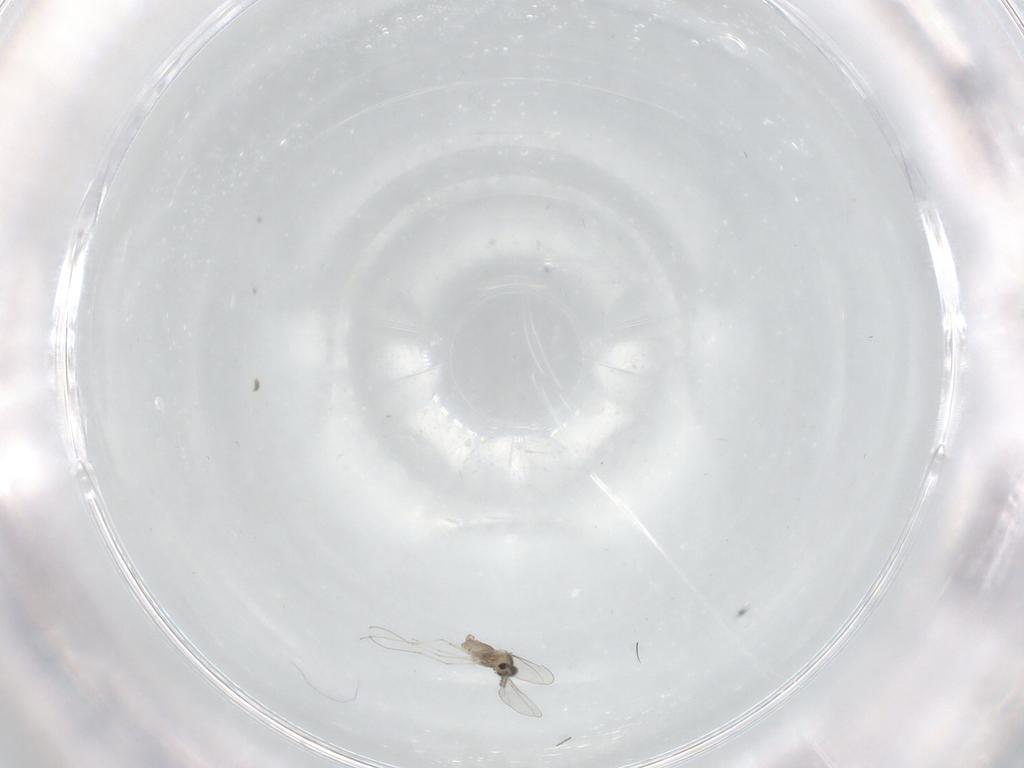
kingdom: Animalia
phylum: Arthropoda
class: Insecta
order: Diptera
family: Cecidomyiidae
